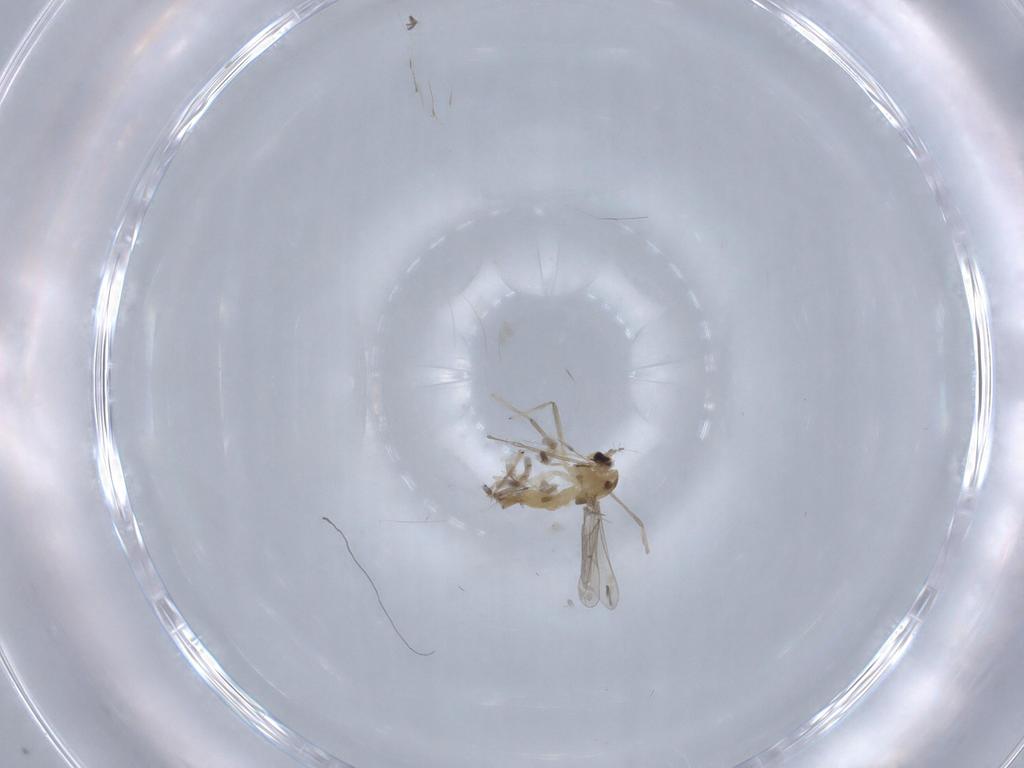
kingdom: Animalia
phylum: Arthropoda
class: Insecta
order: Diptera
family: Chironomidae
